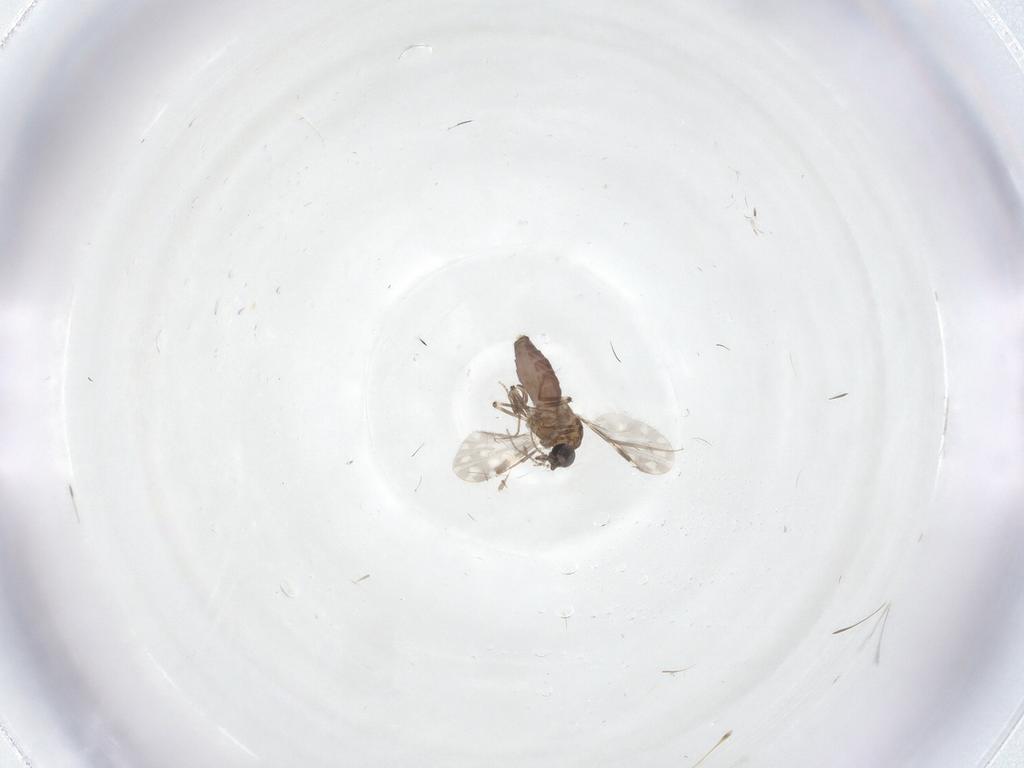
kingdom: Animalia
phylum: Arthropoda
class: Insecta
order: Diptera
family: Ceratopogonidae
